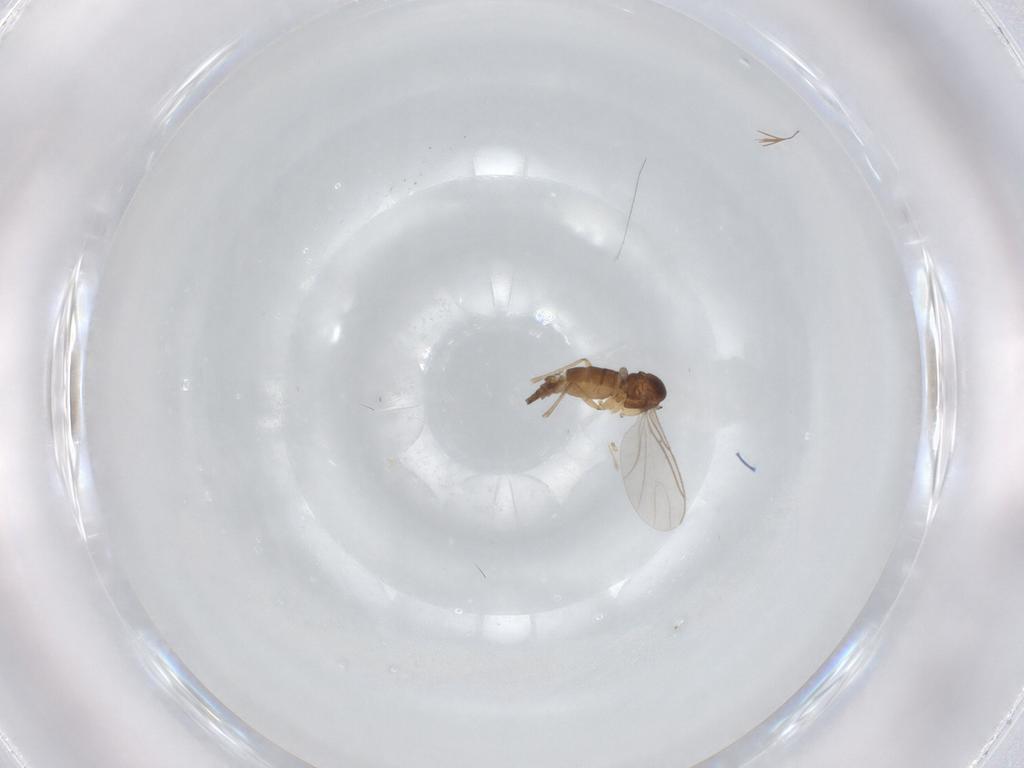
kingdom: Animalia
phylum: Arthropoda
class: Insecta
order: Diptera
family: Sciaridae
